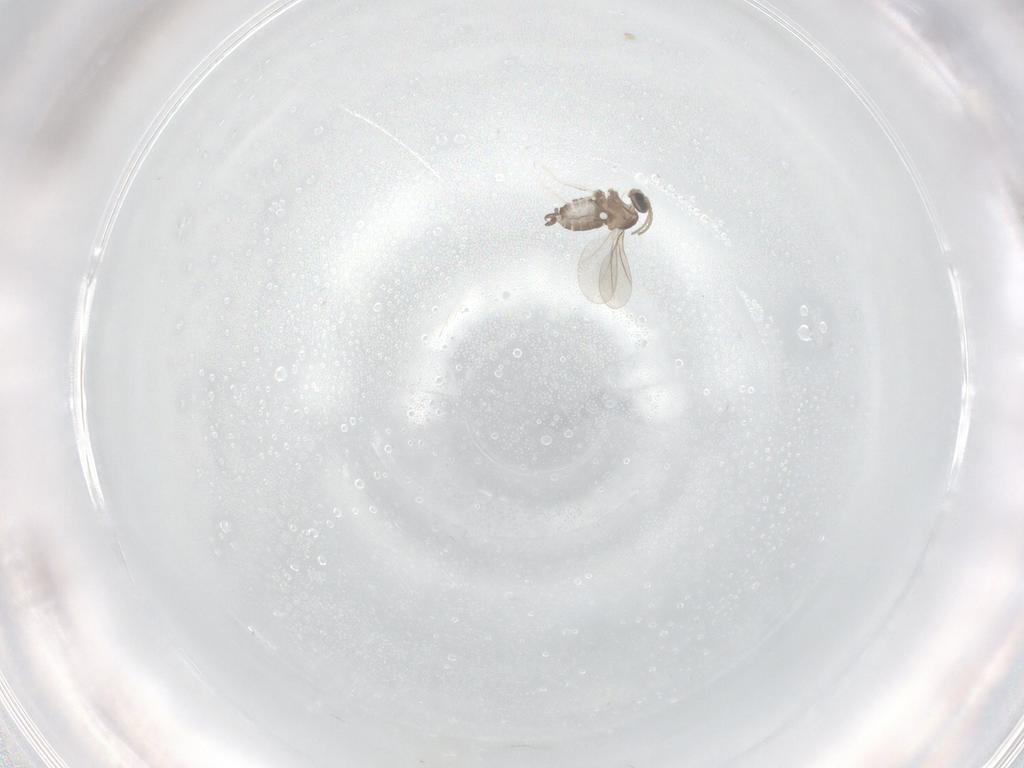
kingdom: Animalia
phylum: Arthropoda
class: Insecta
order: Diptera
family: Cecidomyiidae
